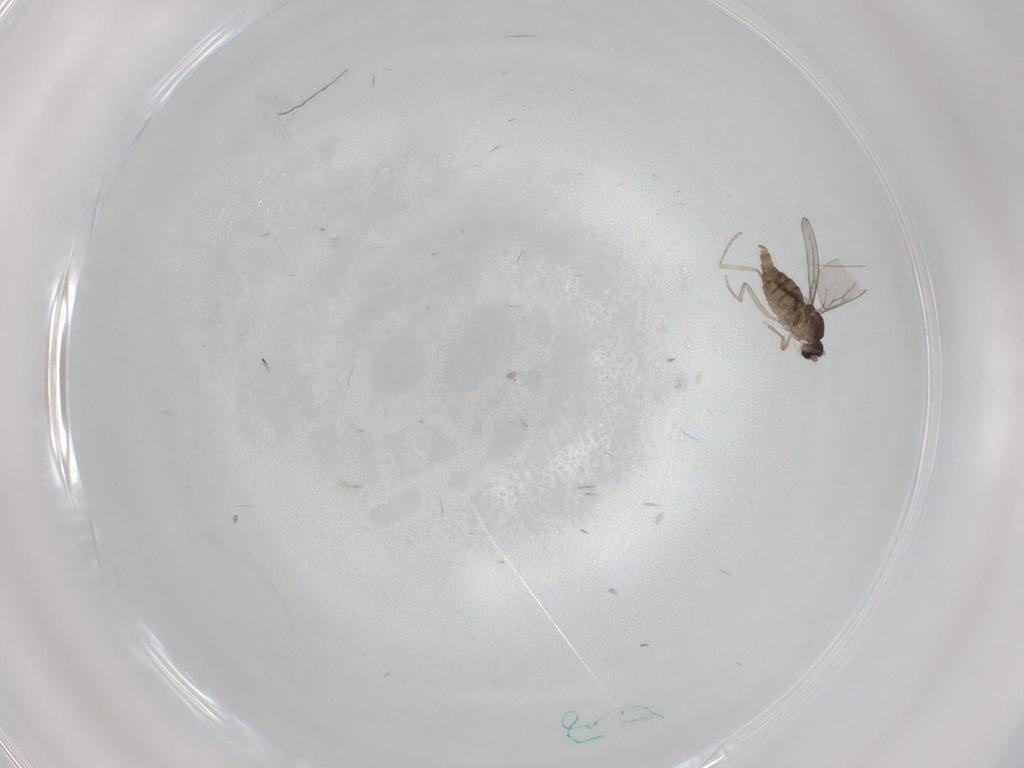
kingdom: Animalia
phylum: Arthropoda
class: Insecta
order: Diptera
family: Cecidomyiidae
